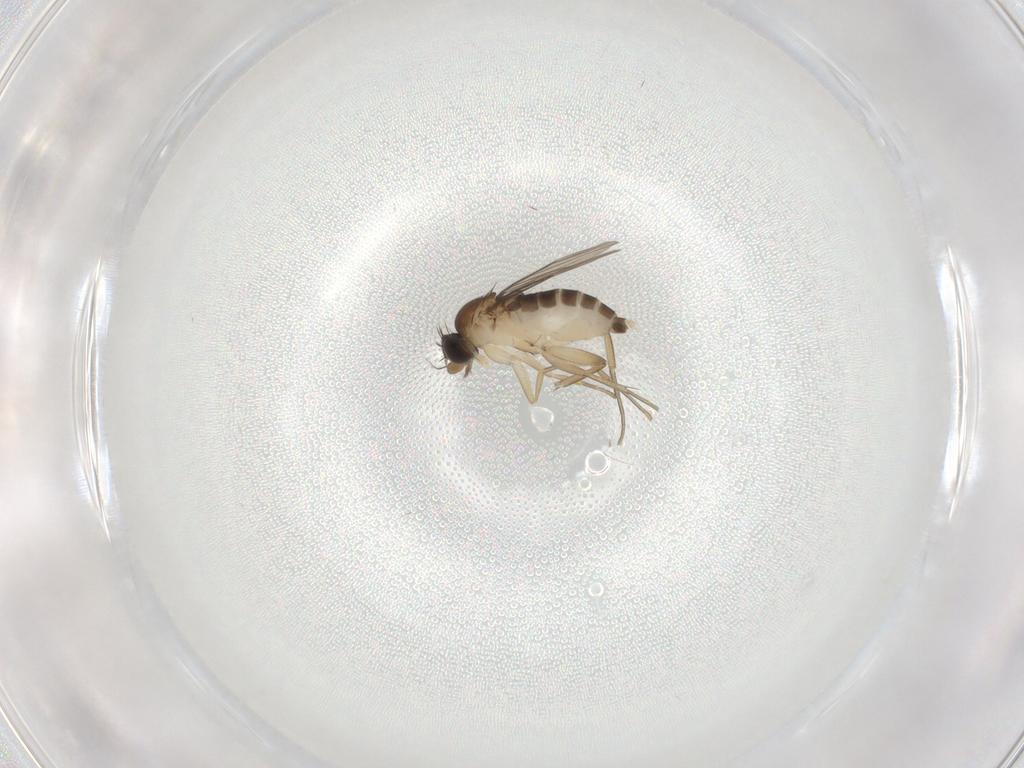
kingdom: Animalia
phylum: Arthropoda
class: Insecta
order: Diptera
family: Phoridae
